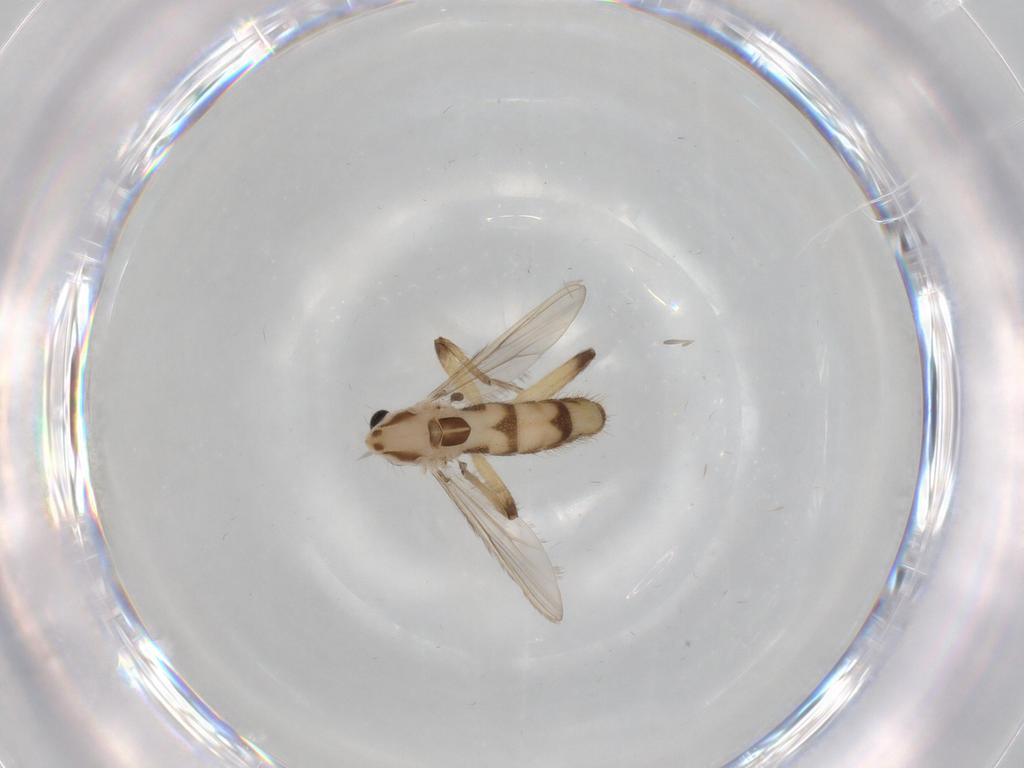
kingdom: Animalia
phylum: Arthropoda
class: Insecta
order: Diptera
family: Chironomidae
